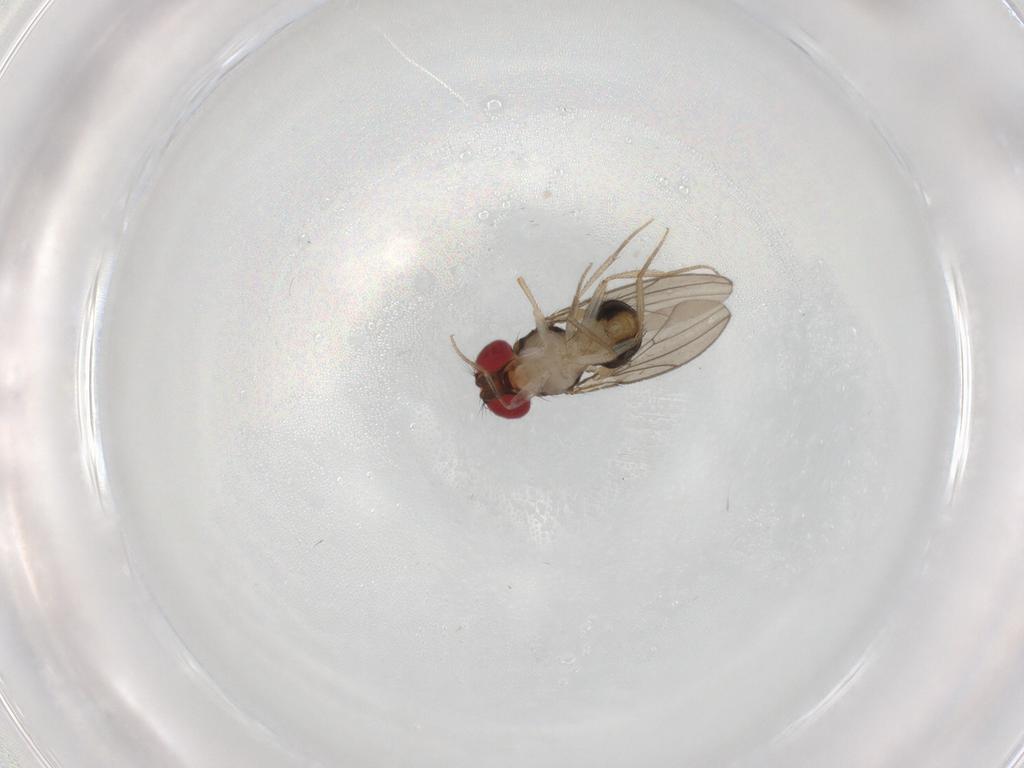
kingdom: Animalia
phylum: Arthropoda
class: Insecta
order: Diptera
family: Drosophilidae
